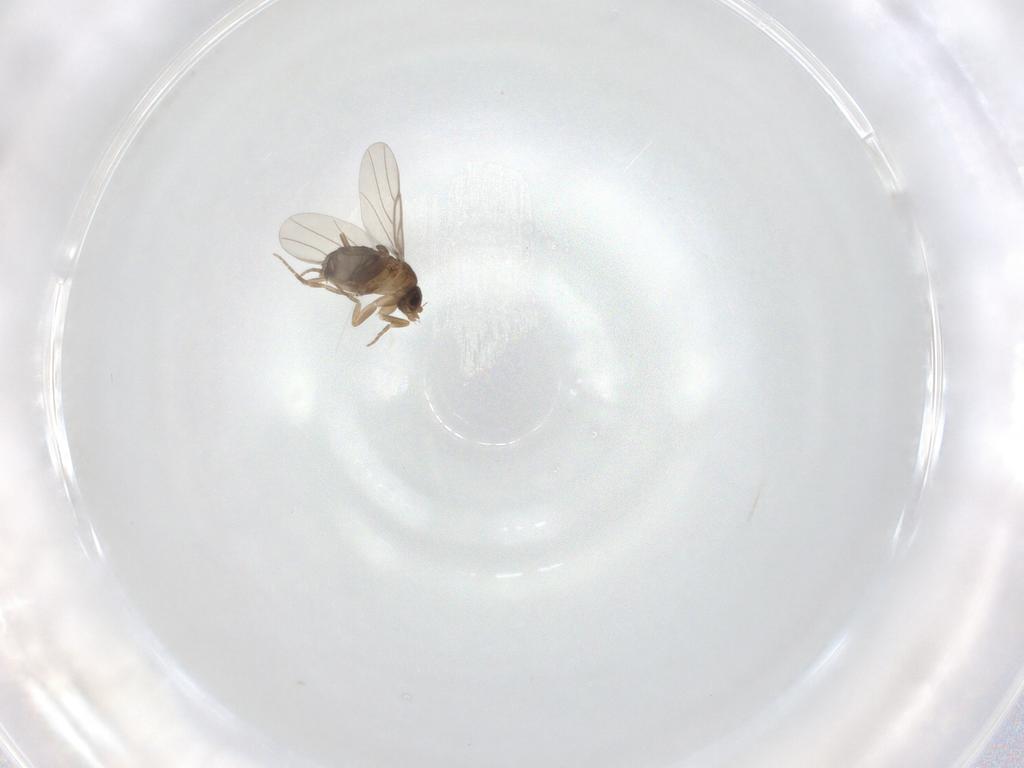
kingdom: Animalia
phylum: Arthropoda
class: Insecta
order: Diptera
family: Phoridae
